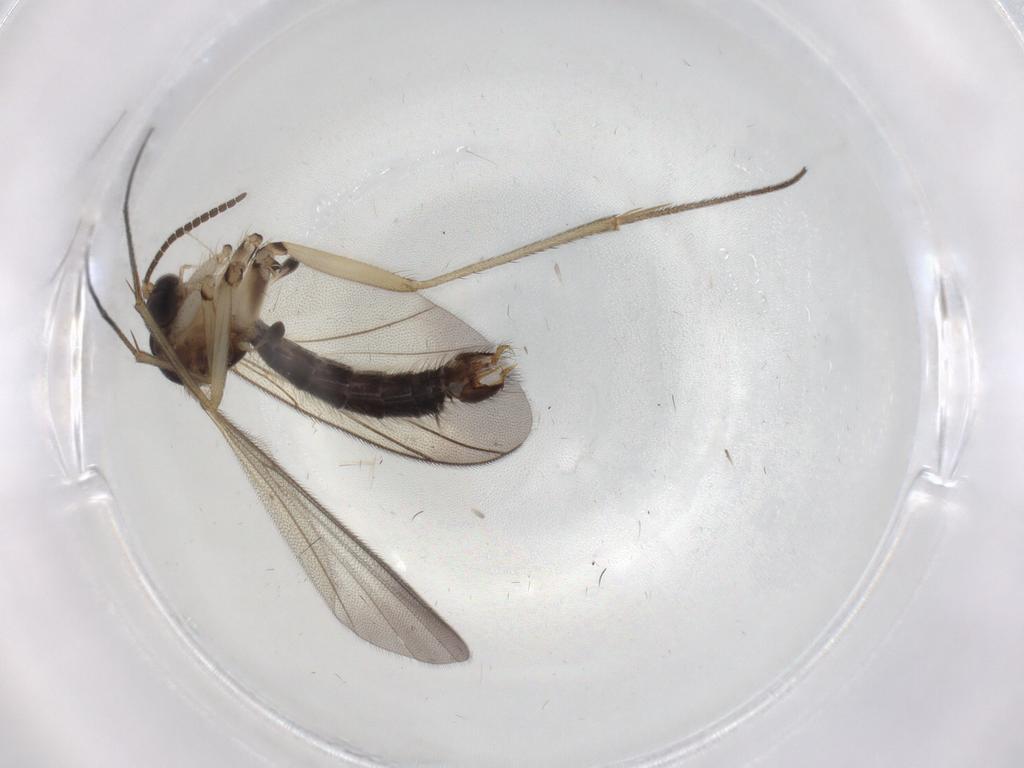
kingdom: Animalia
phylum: Arthropoda
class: Insecta
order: Diptera
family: Mycetophilidae
